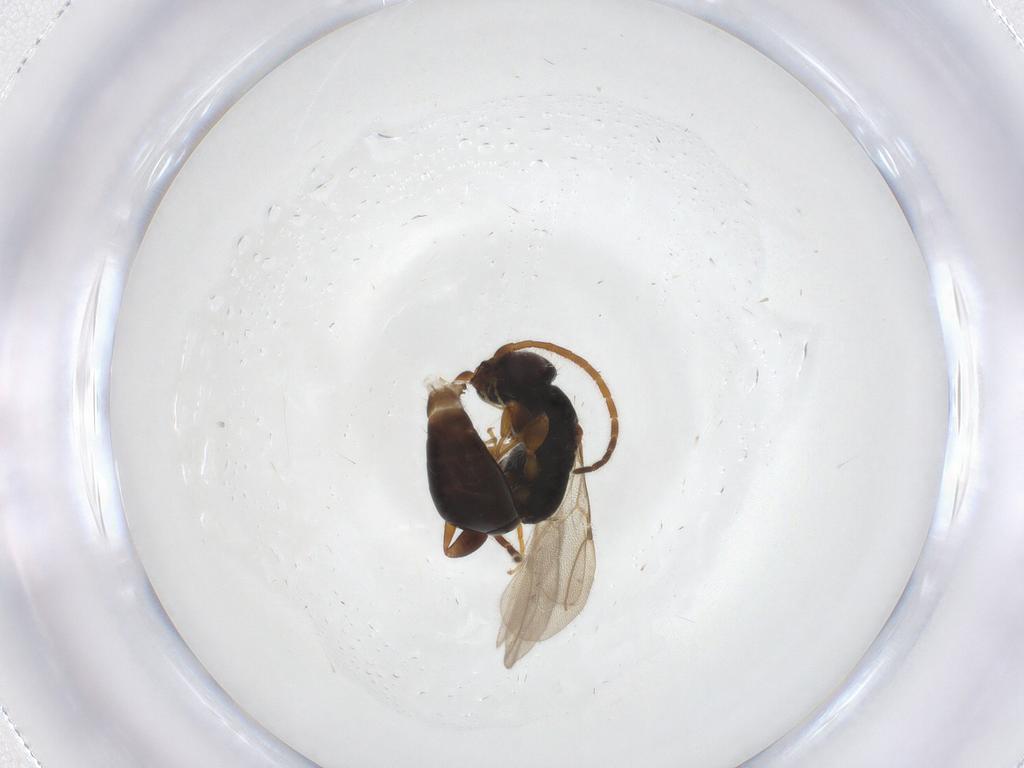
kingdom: Animalia
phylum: Arthropoda
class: Insecta
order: Hymenoptera
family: Bethylidae
